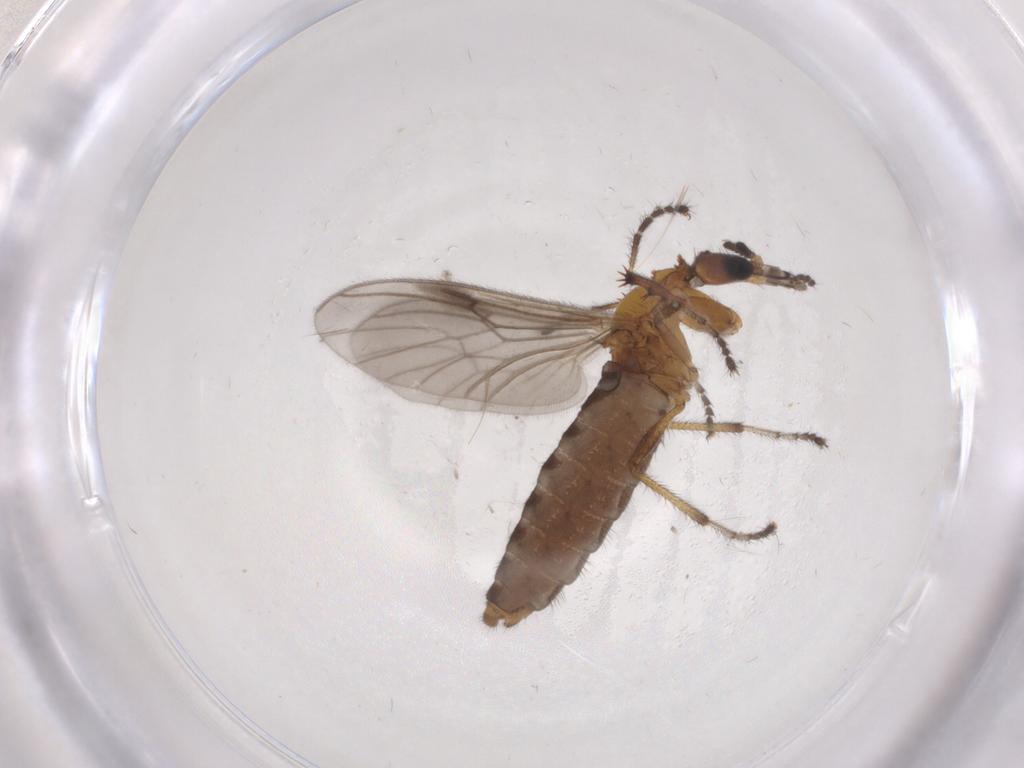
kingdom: Animalia
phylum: Arthropoda
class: Insecta
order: Diptera
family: Bibionidae
